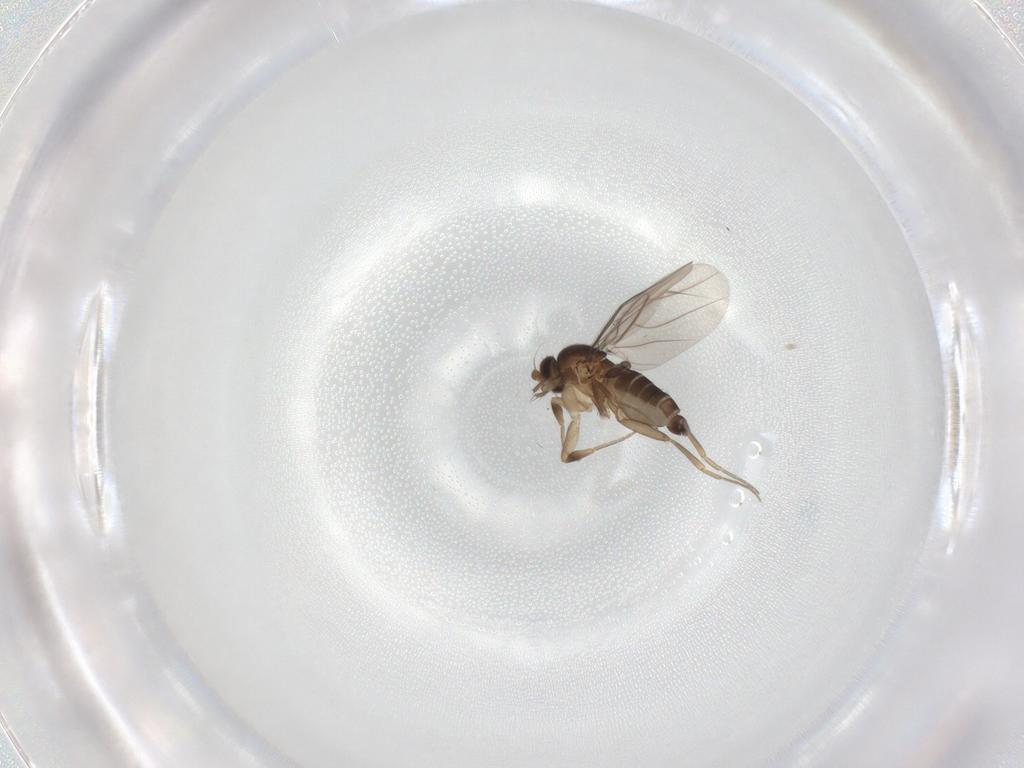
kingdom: Animalia
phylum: Arthropoda
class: Insecta
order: Diptera
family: Phoridae
